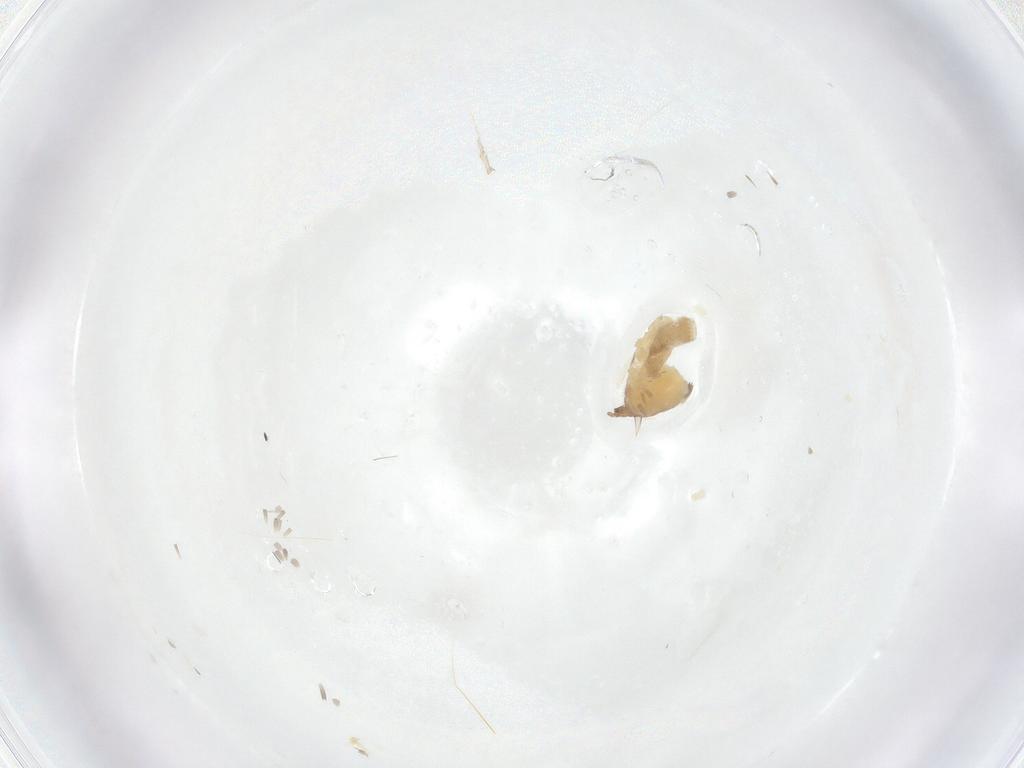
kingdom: Animalia
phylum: Arthropoda
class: Insecta
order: Diptera
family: Sciaridae
